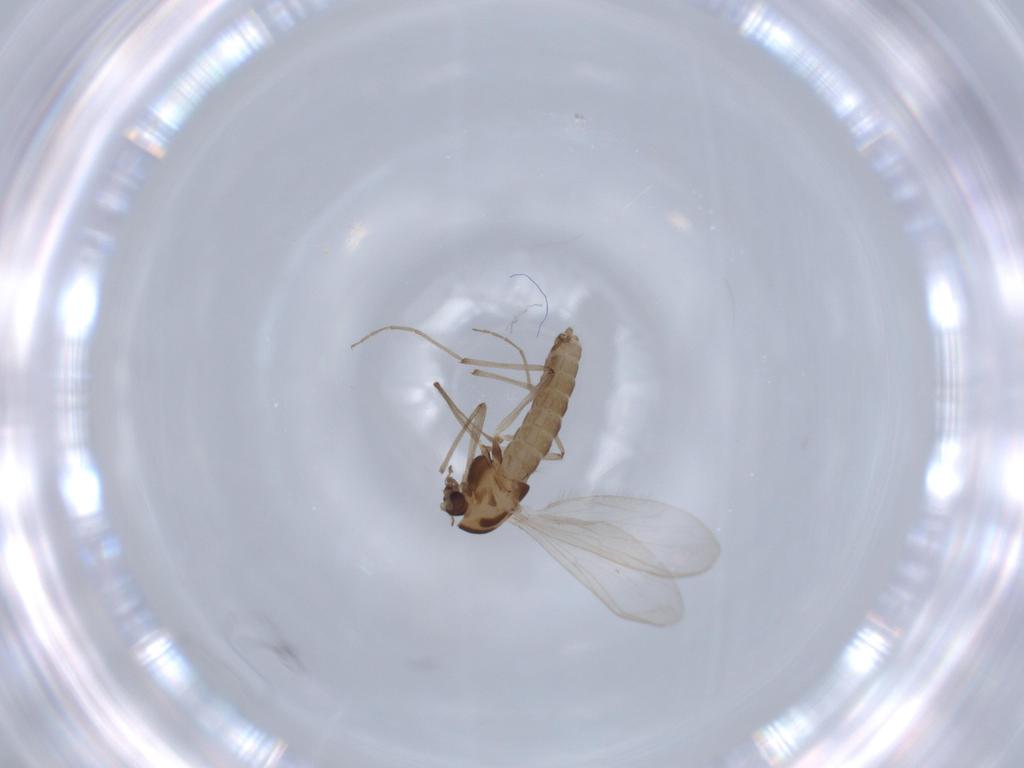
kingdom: Animalia
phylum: Arthropoda
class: Insecta
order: Diptera
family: Chironomidae
